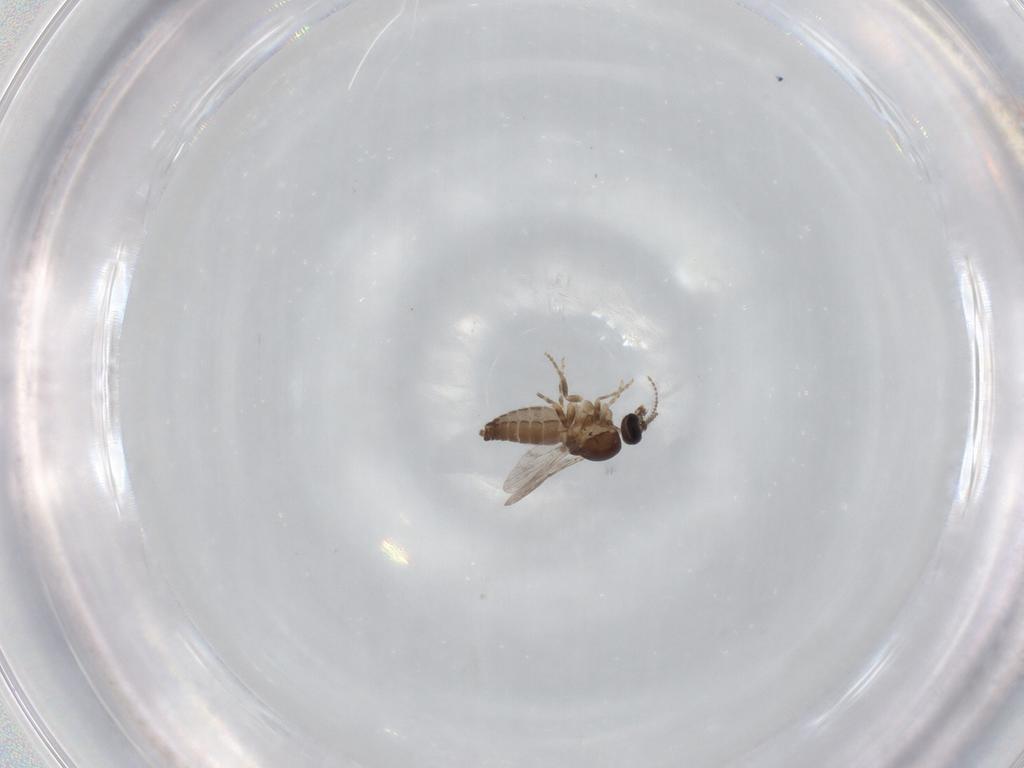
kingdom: Animalia
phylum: Arthropoda
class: Insecta
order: Diptera
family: Ceratopogonidae
